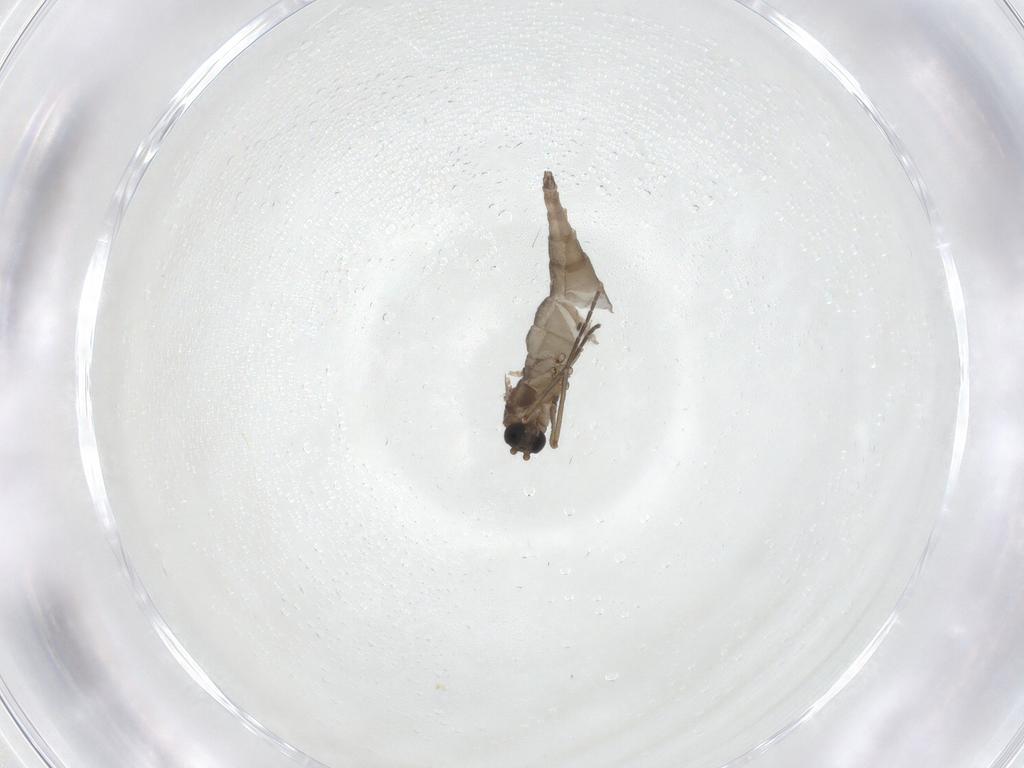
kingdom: Animalia
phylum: Arthropoda
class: Insecta
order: Diptera
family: Sciaridae
